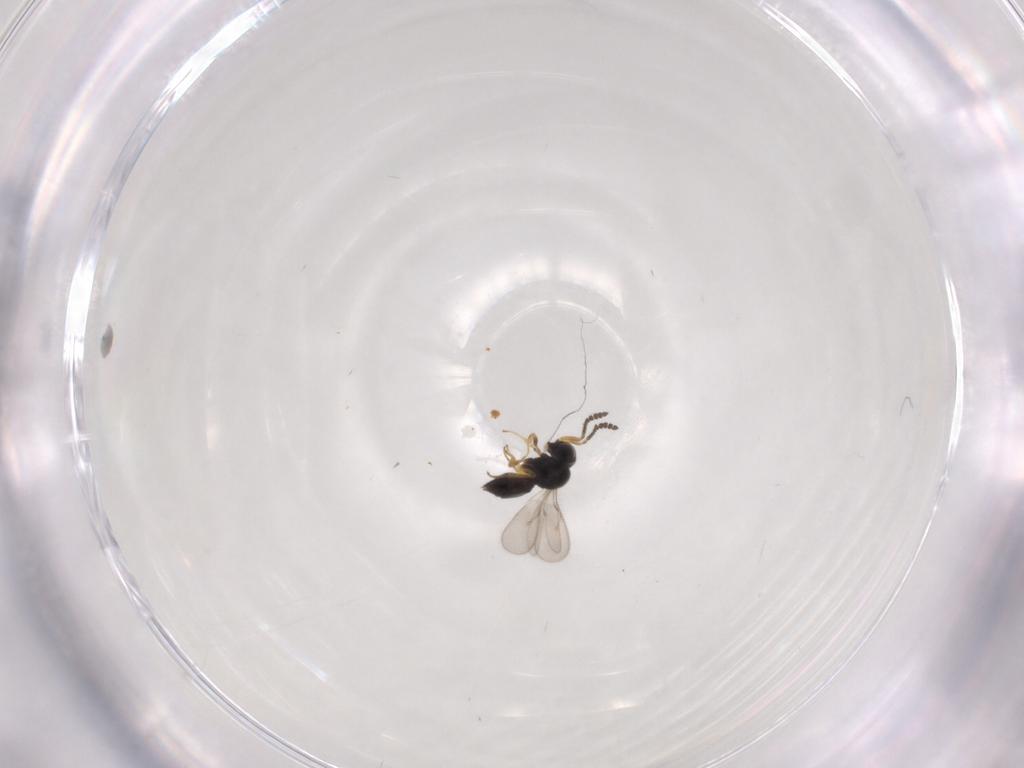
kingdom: Animalia
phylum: Arthropoda
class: Insecta
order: Hymenoptera
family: Scelionidae
